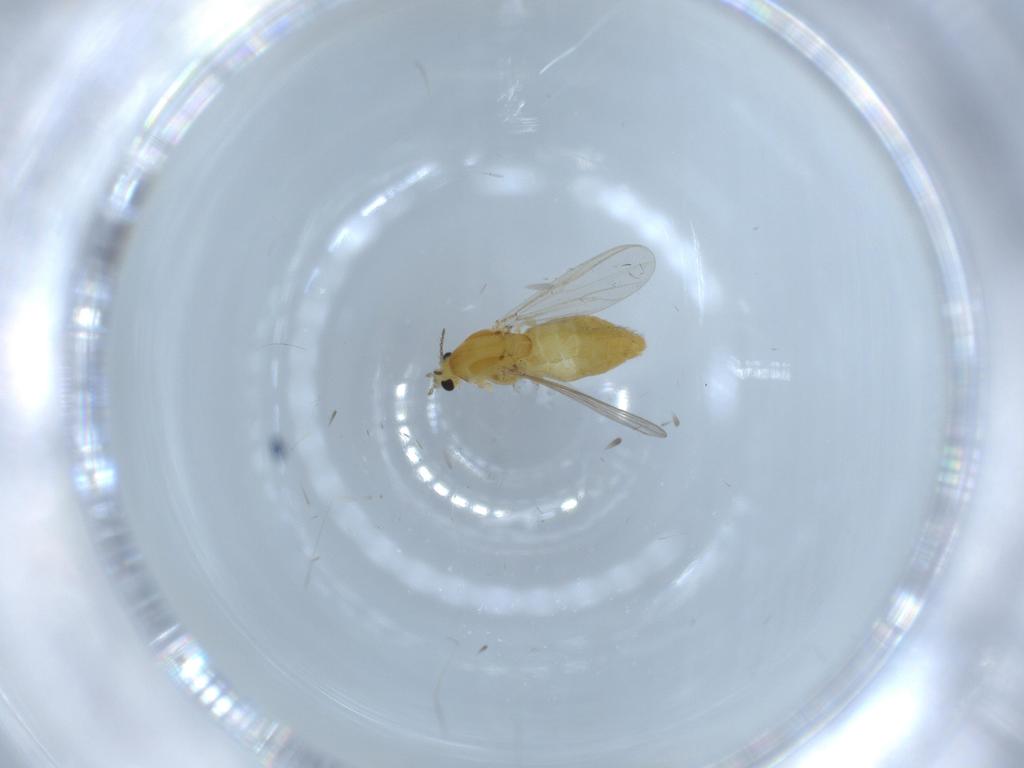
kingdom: Animalia
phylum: Arthropoda
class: Insecta
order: Diptera
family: Chironomidae
